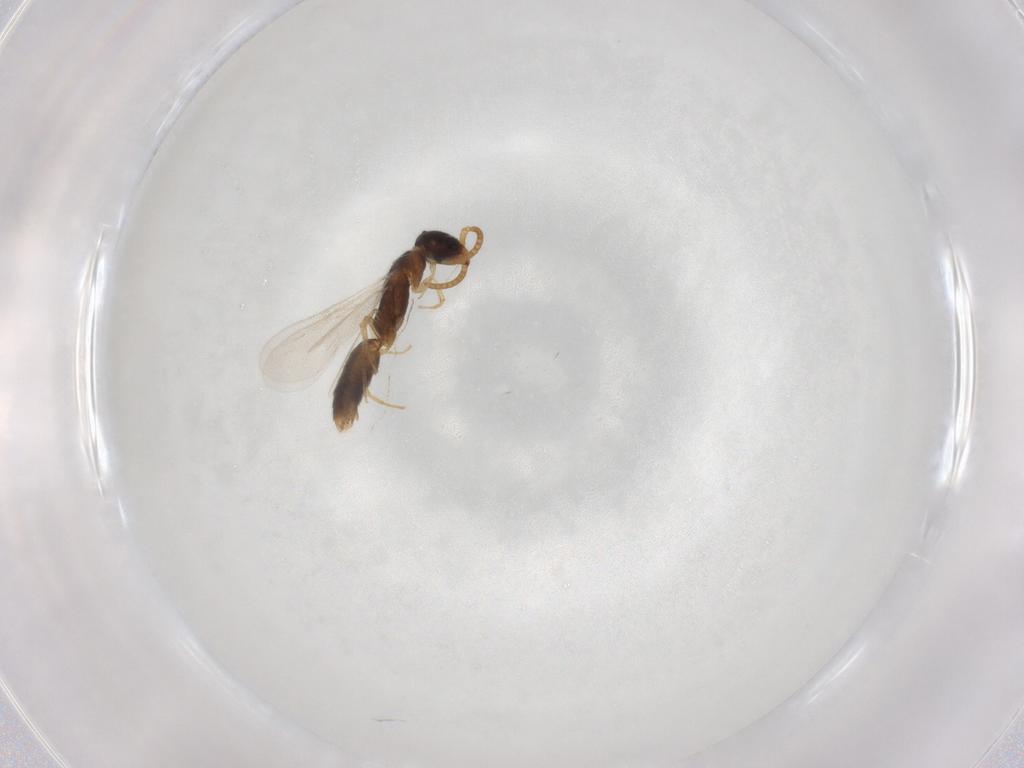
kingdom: Animalia
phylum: Arthropoda
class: Insecta
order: Hymenoptera
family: Bethylidae
